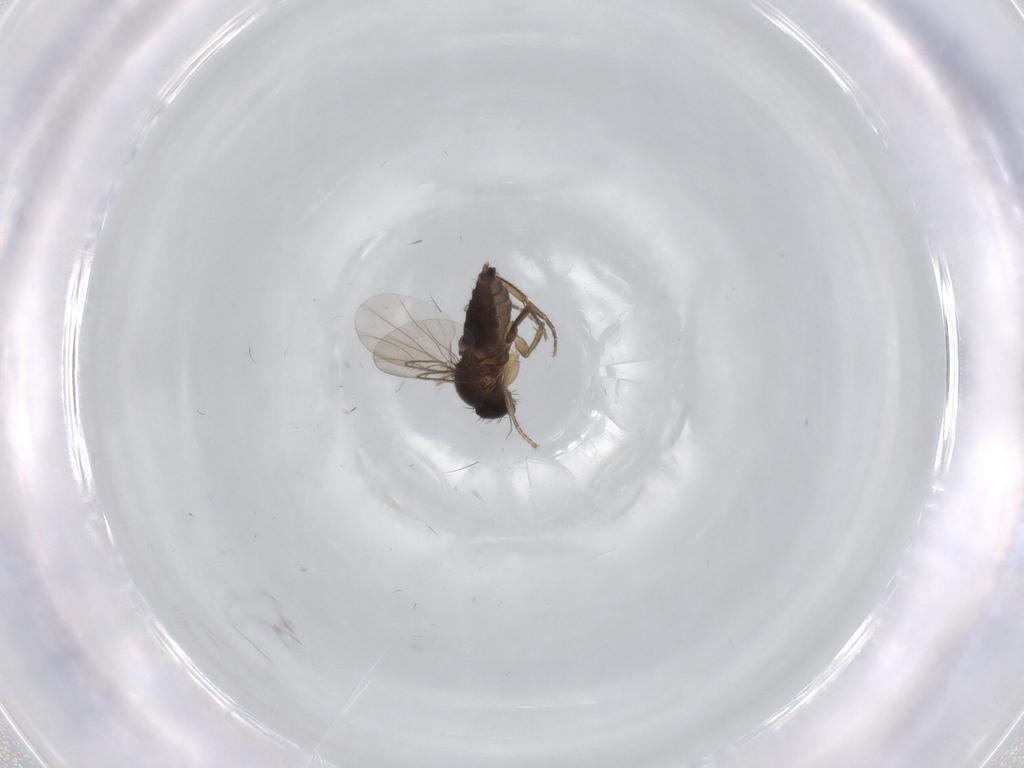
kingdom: Animalia
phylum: Arthropoda
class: Insecta
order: Diptera
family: Phoridae
